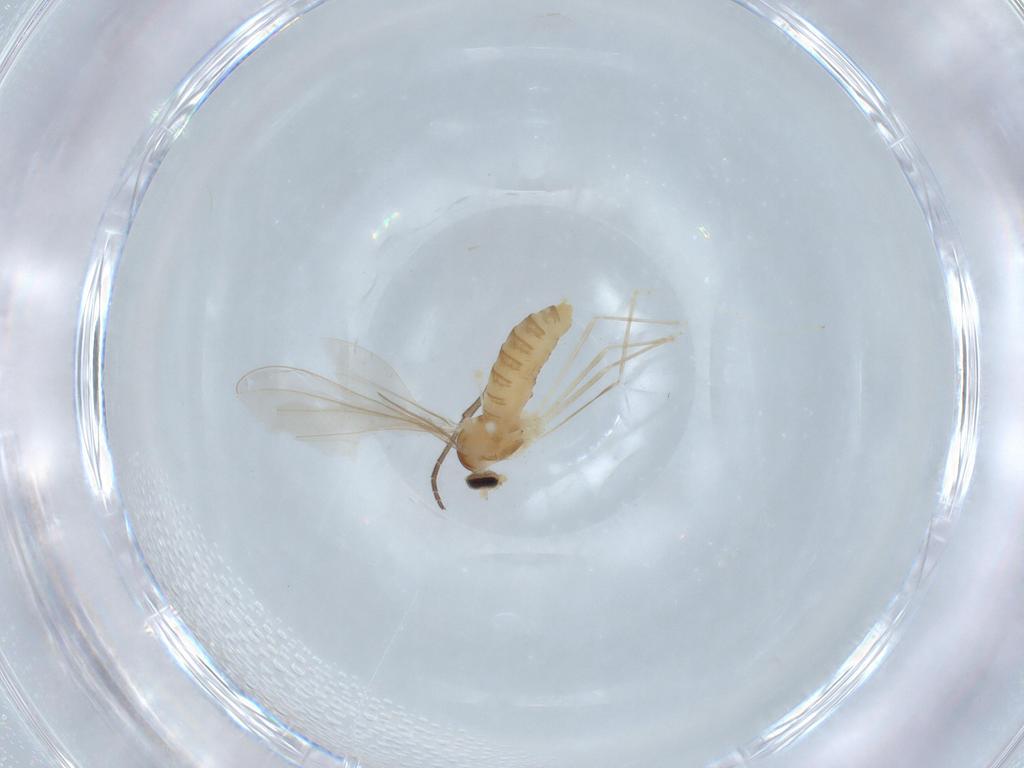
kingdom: Animalia
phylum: Arthropoda
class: Insecta
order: Diptera
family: Cecidomyiidae
